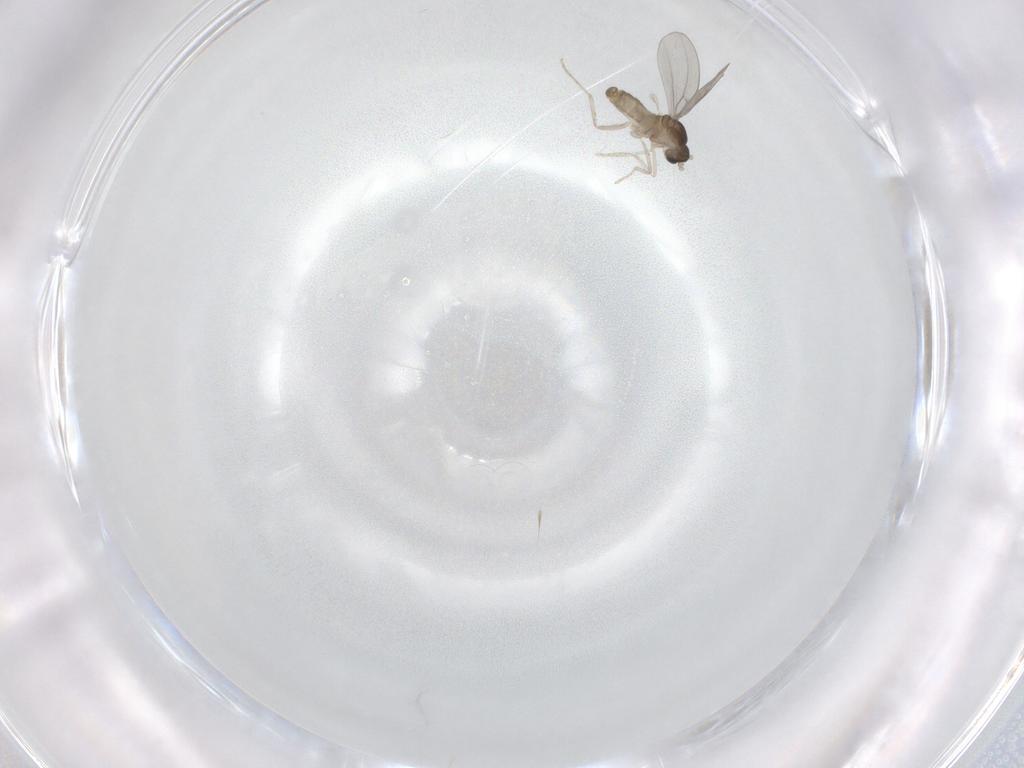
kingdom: Animalia
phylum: Arthropoda
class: Insecta
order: Diptera
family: Cecidomyiidae
